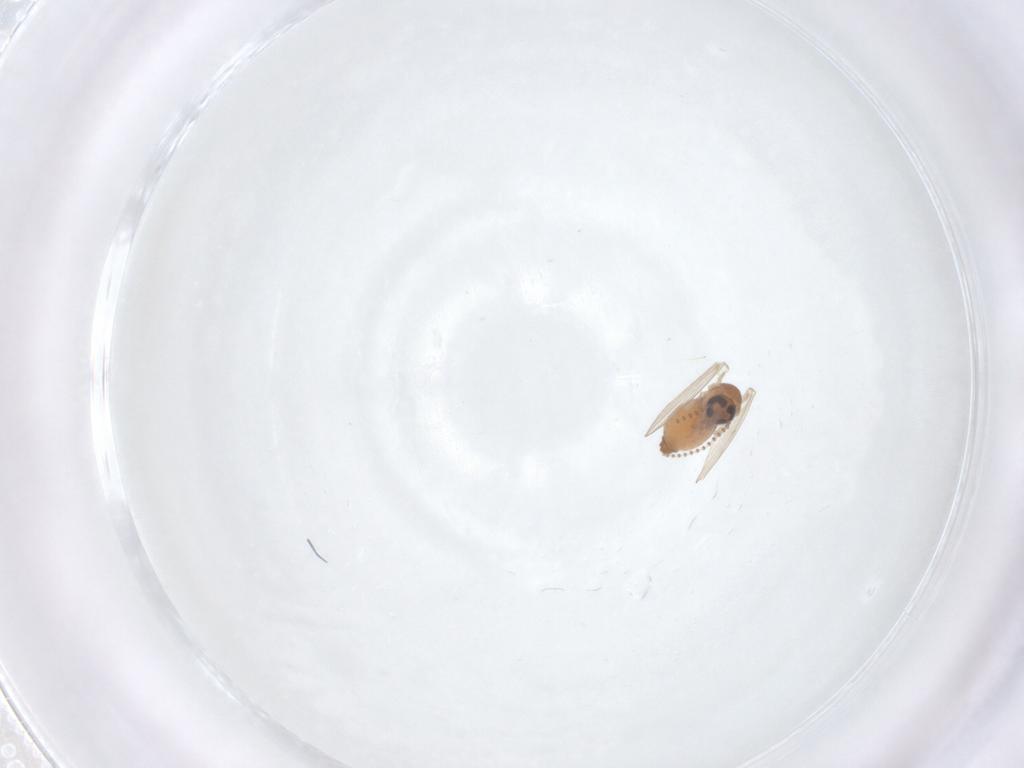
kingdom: Animalia
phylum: Arthropoda
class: Insecta
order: Diptera
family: Psychodidae
